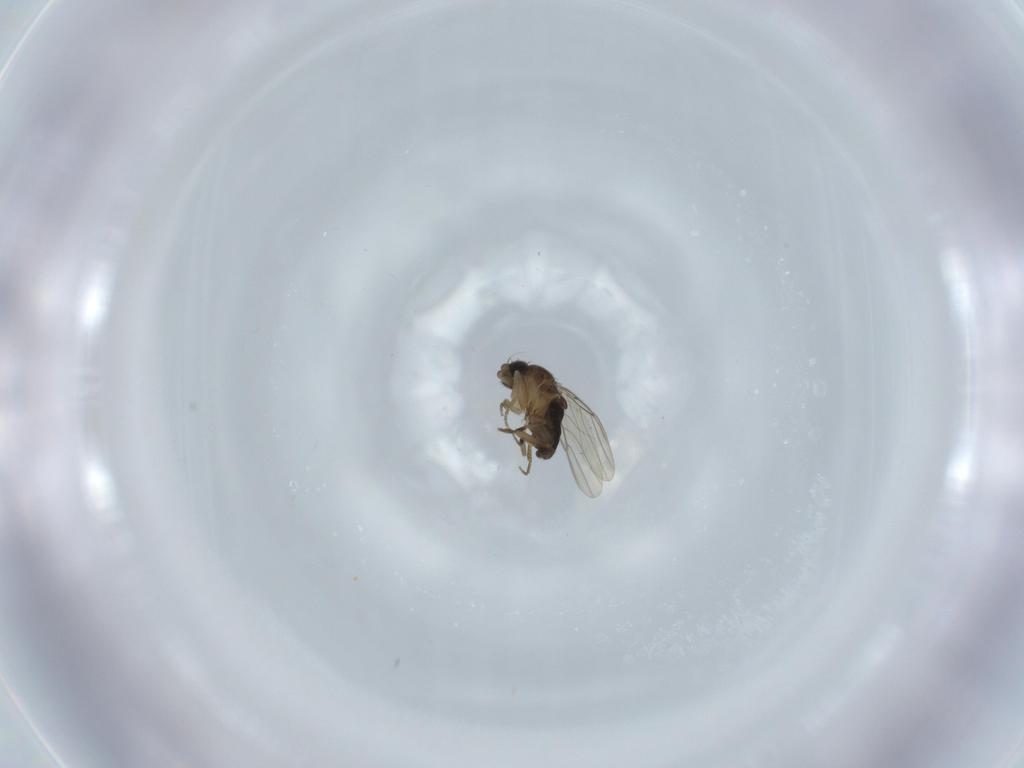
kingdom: Animalia
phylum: Arthropoda
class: Insecta
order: Diptera
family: Phoridae
